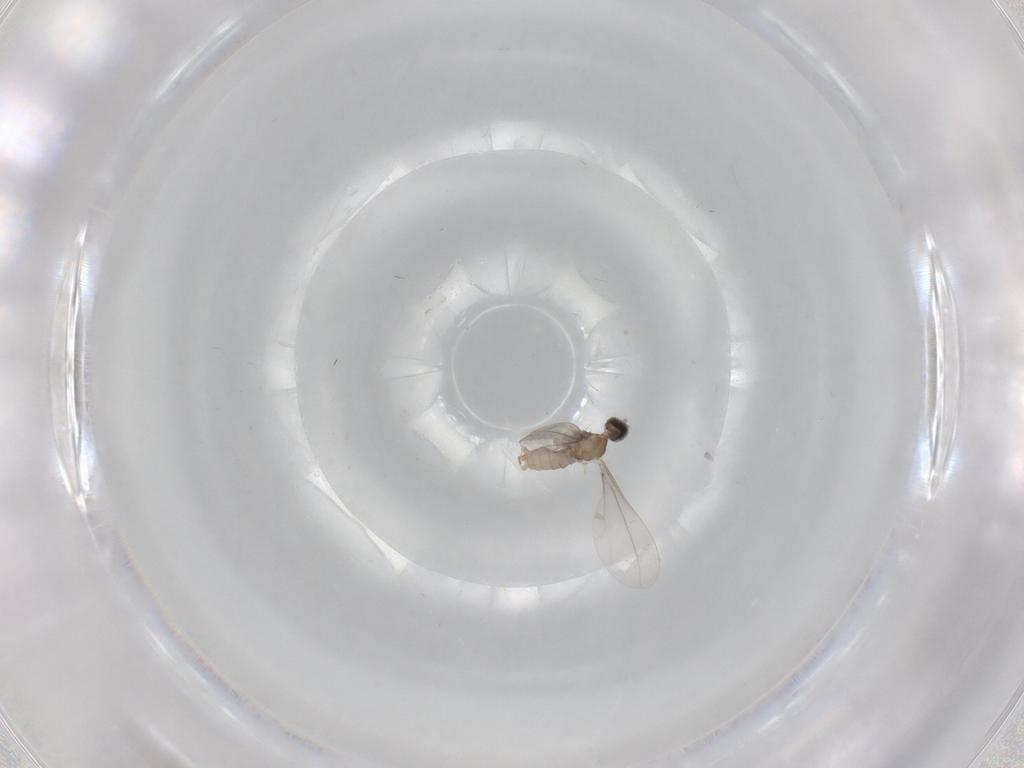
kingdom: Animalia
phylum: Arthropoda
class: Insecta
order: Diptera
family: Cecidomyiidae
